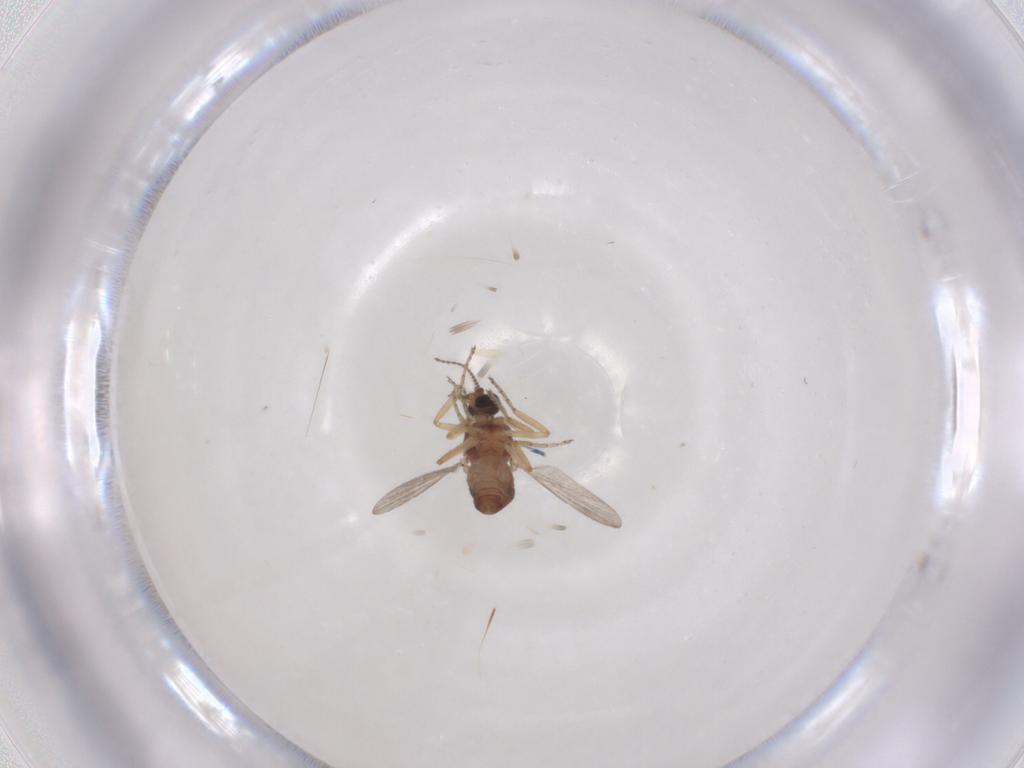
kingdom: Animalia
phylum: Arthropoda
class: Insecta
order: Diptera
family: Ceratopogonidae
